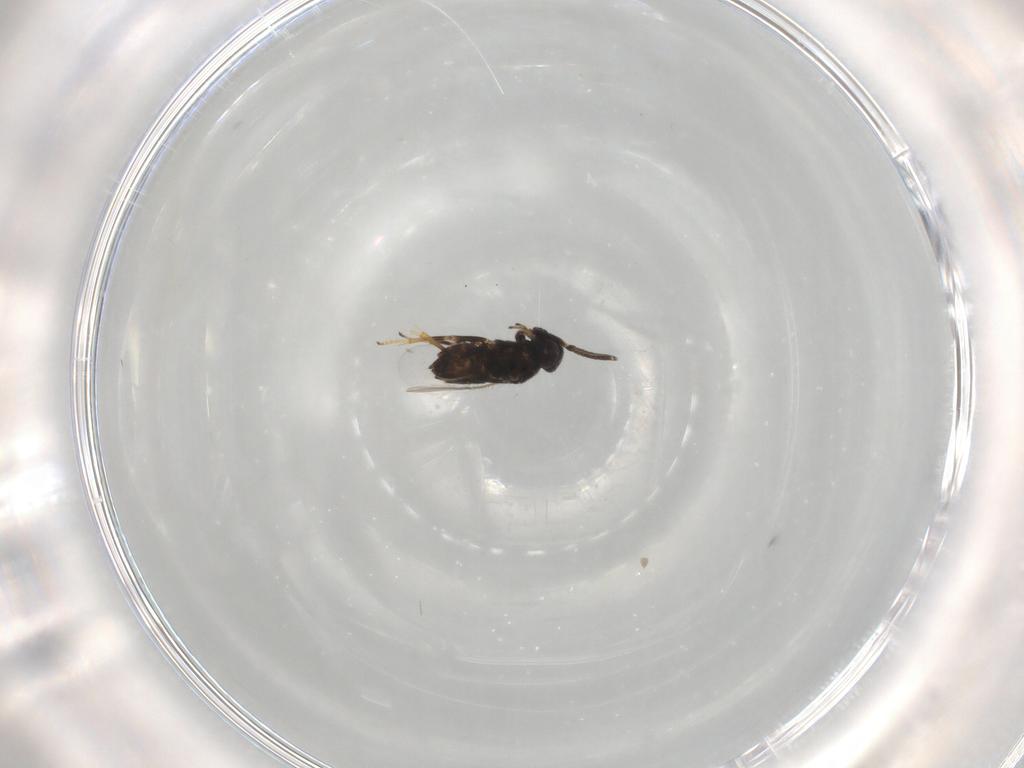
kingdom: Animalia
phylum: Arthropoda
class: Insecta
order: Hymenoptera
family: Encyrtidae
